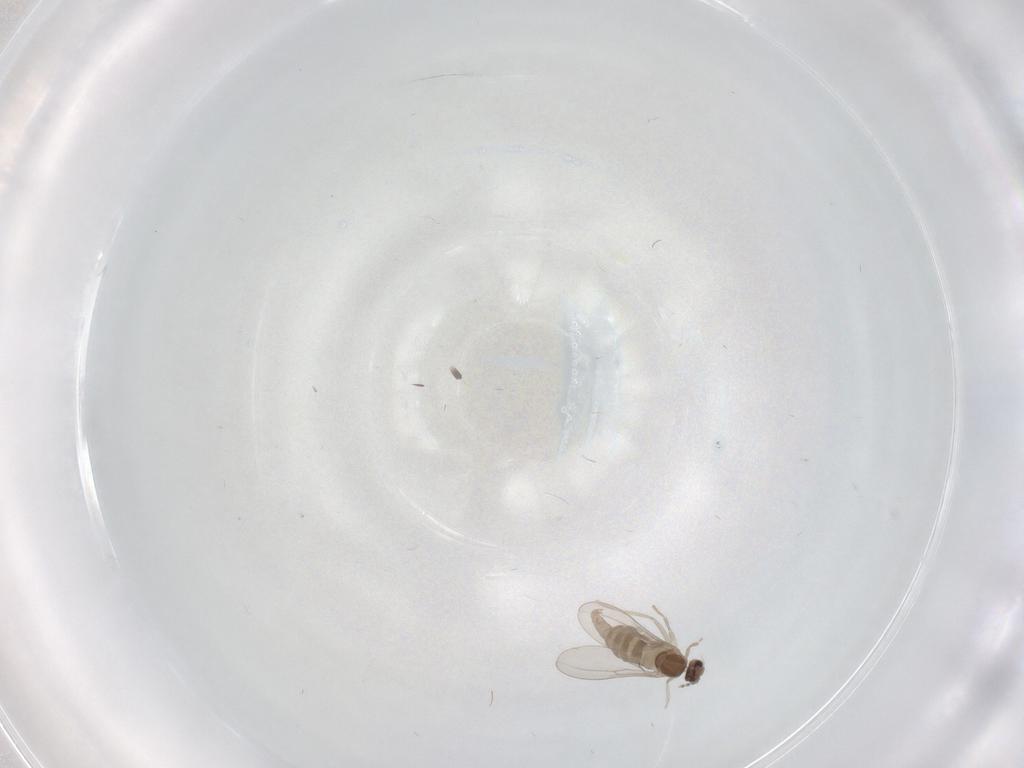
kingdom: Animalia
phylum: Arthropoda
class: Insecta
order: Diptera
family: Cecidomyiidae
